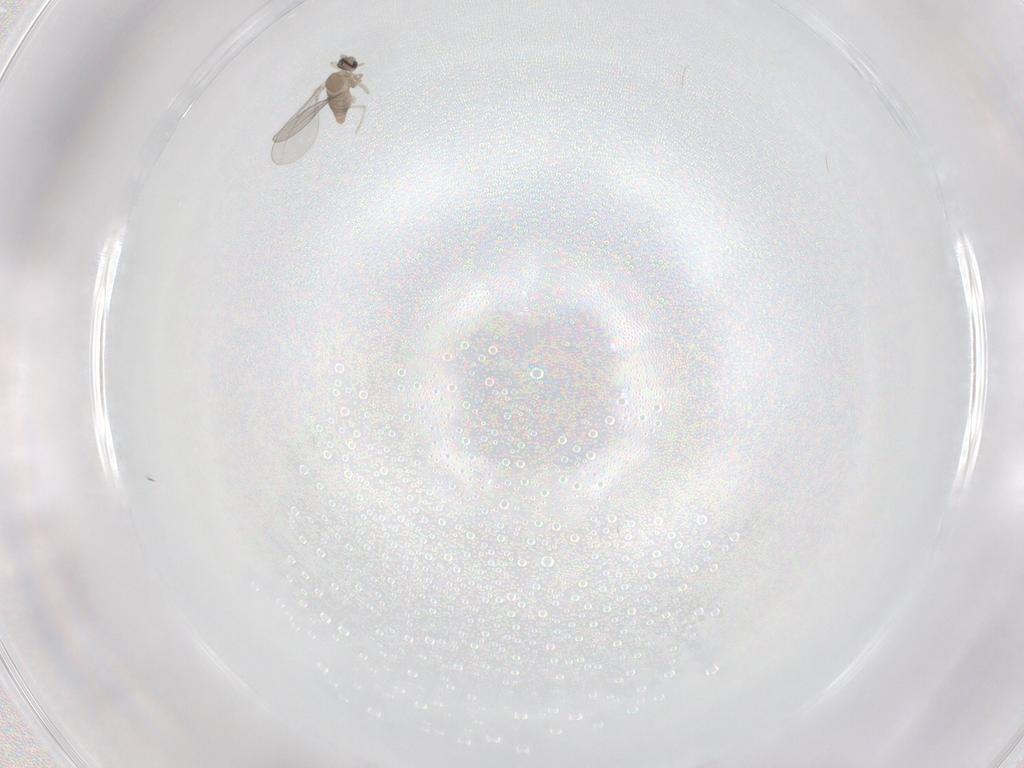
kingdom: Animalia
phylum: Arthropoda
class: Insecta
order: Diptera
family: Cecidomyiidae
